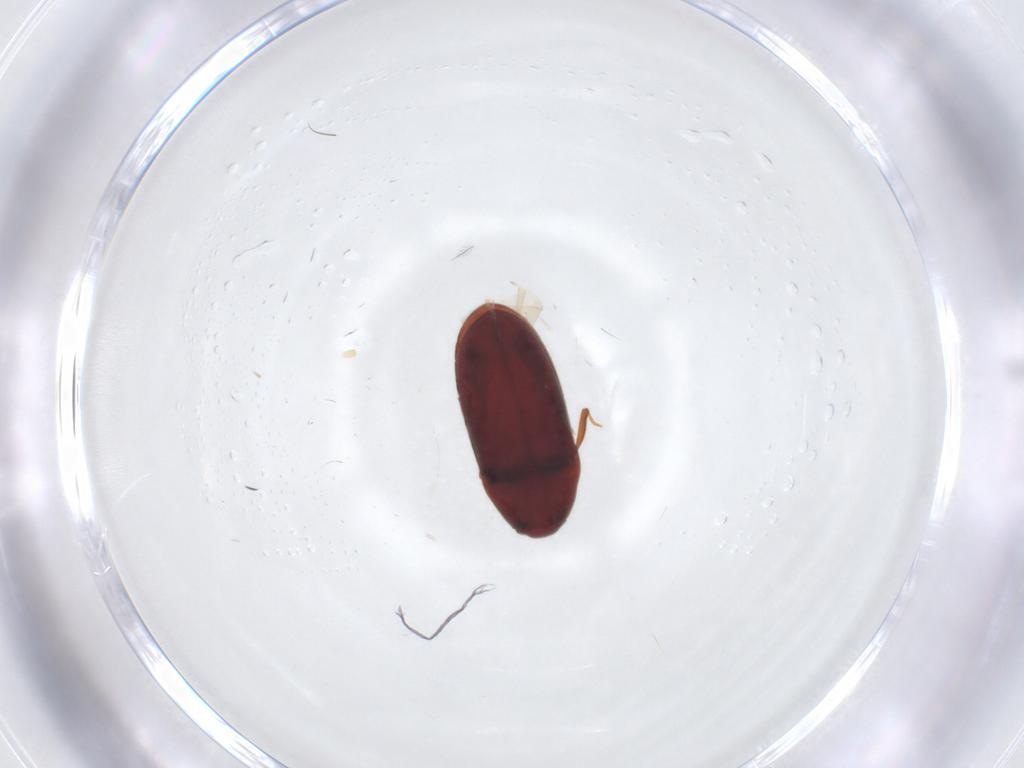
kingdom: Animalia
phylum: Arthropoda
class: Insecta
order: Coleoptera
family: Throscidae
